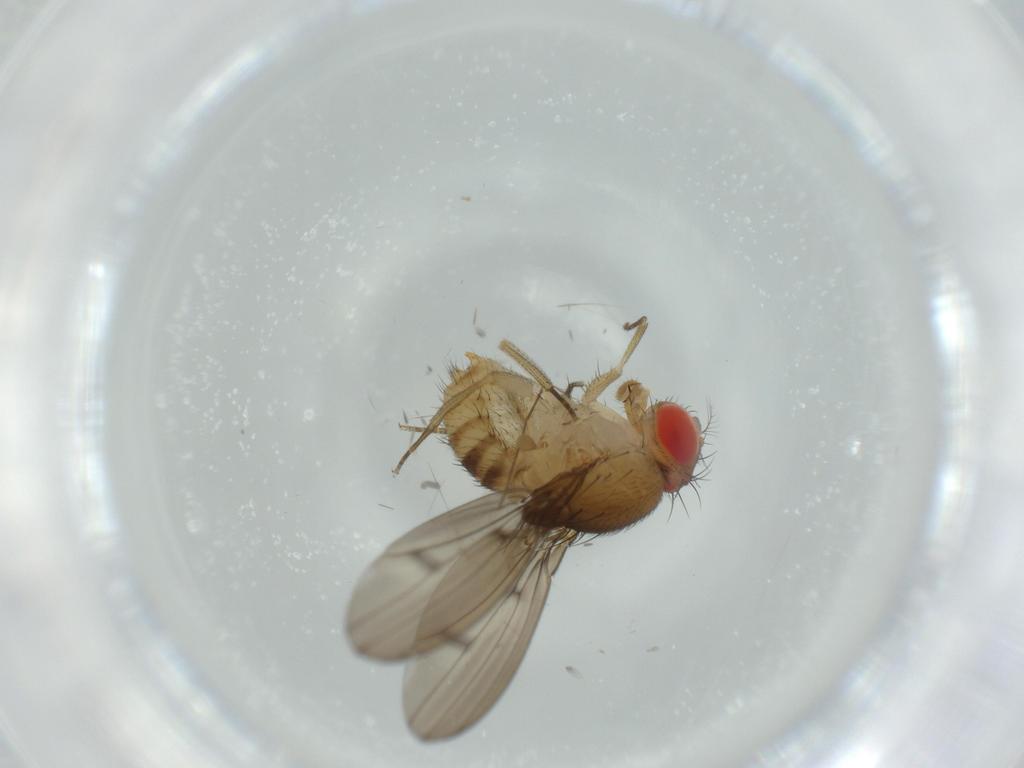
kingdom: Animalia
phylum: Arthropoda
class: Insecta
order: Diptera
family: Drosophilidae
